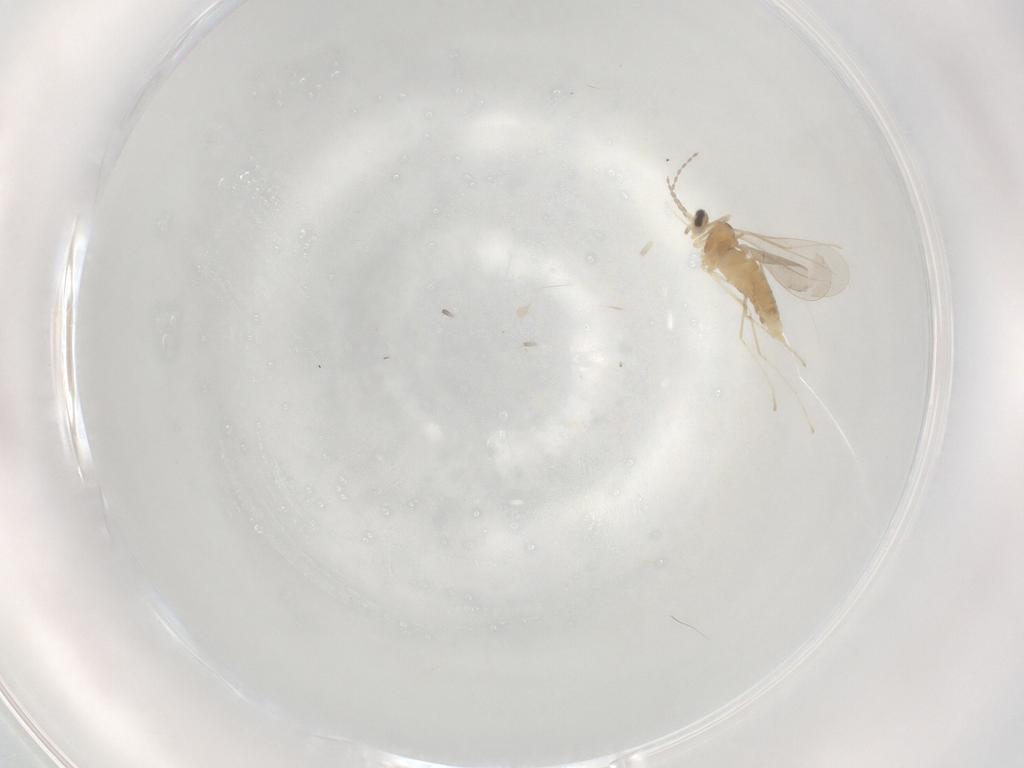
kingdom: Animalia
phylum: Arthropoda
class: Insecta
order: Diptera
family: Cecidomyiidae
